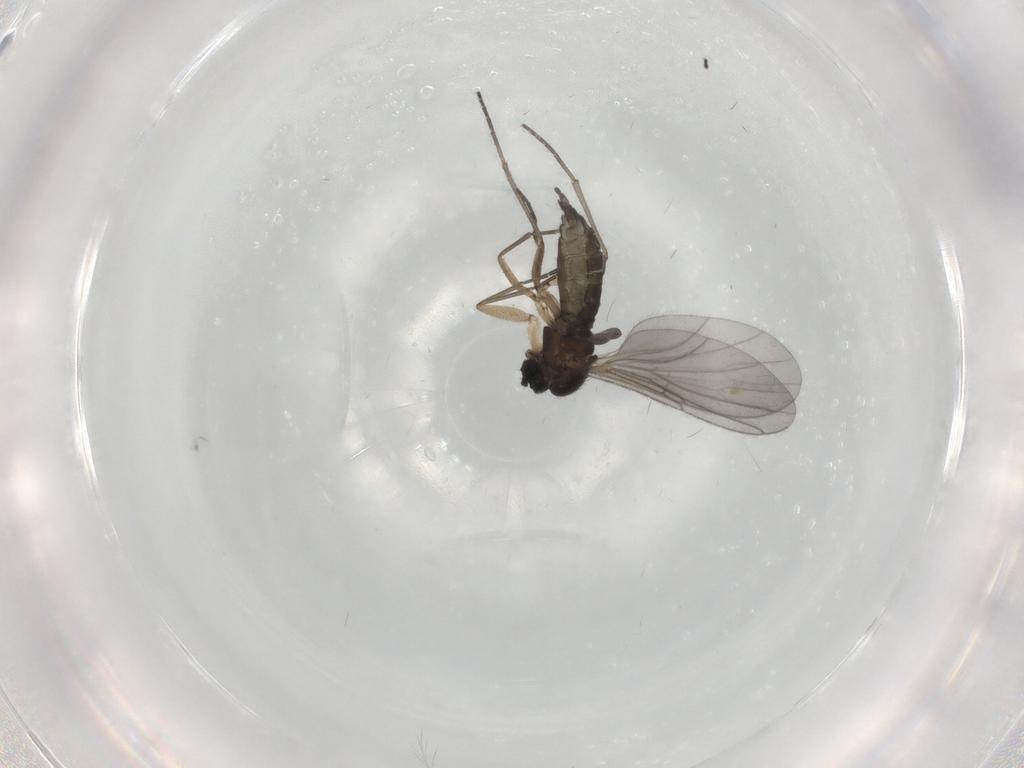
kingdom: Animalia
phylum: Arthropoda
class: Insecta
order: Diptera
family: Sciaridae
